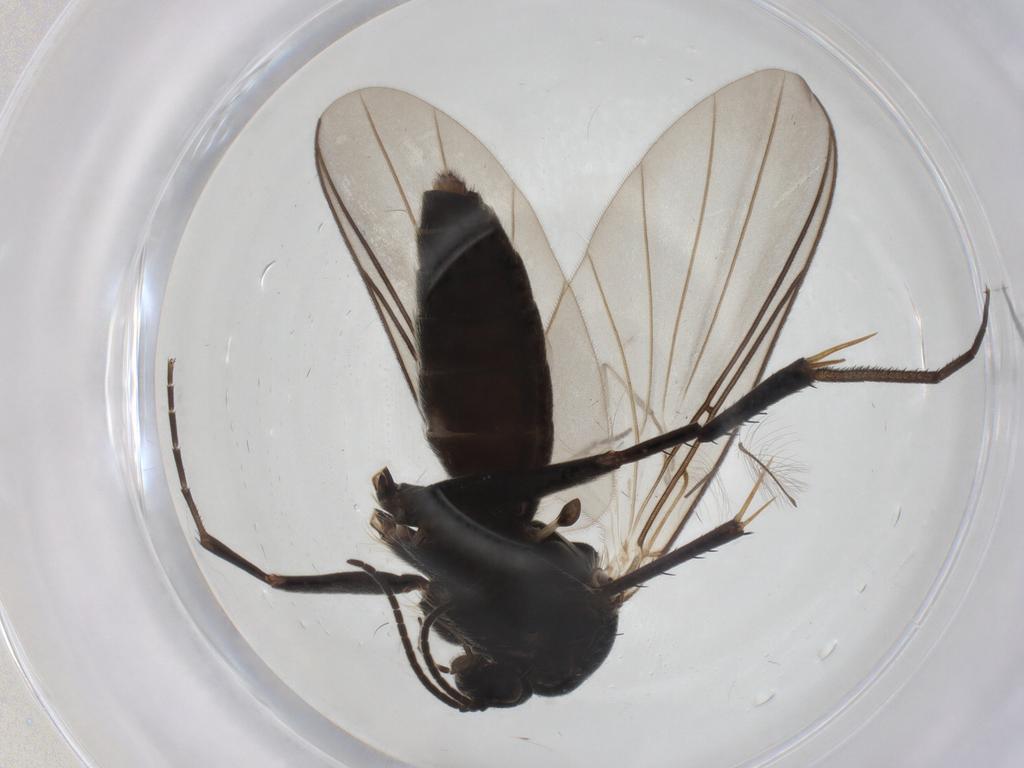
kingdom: Animalia
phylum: Arthropoda
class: Insecta
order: Diptera
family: Mycetophilidae
